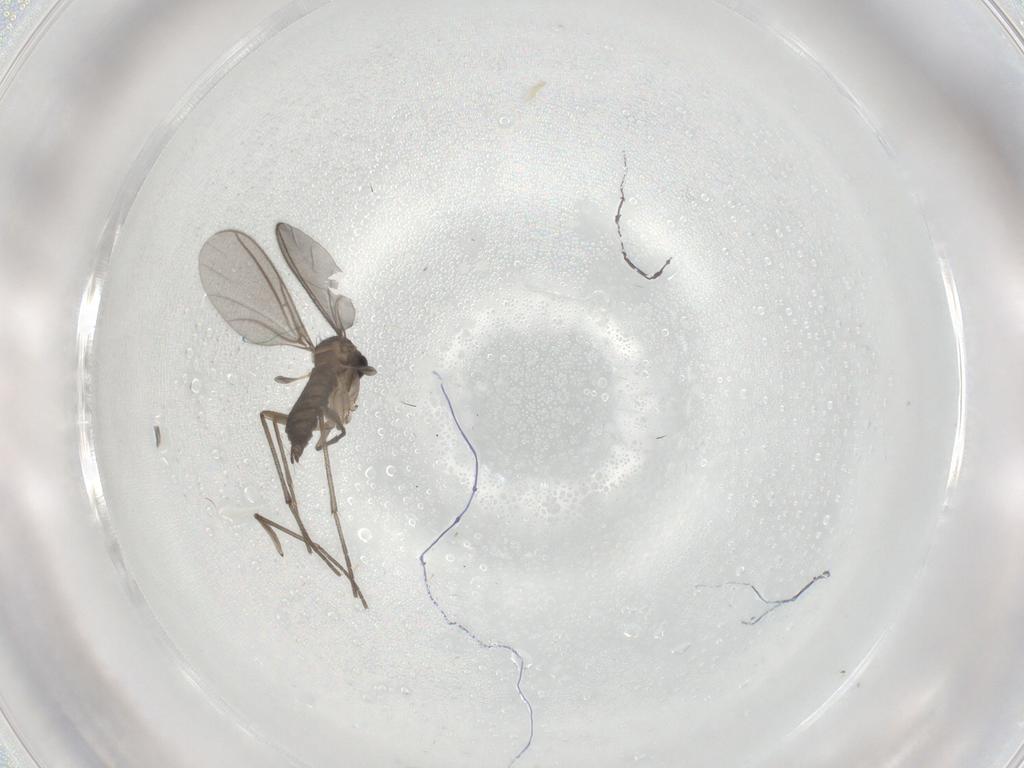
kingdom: Animalia
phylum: Arthropoda
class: Insecta
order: Diptera
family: Sciaridae
